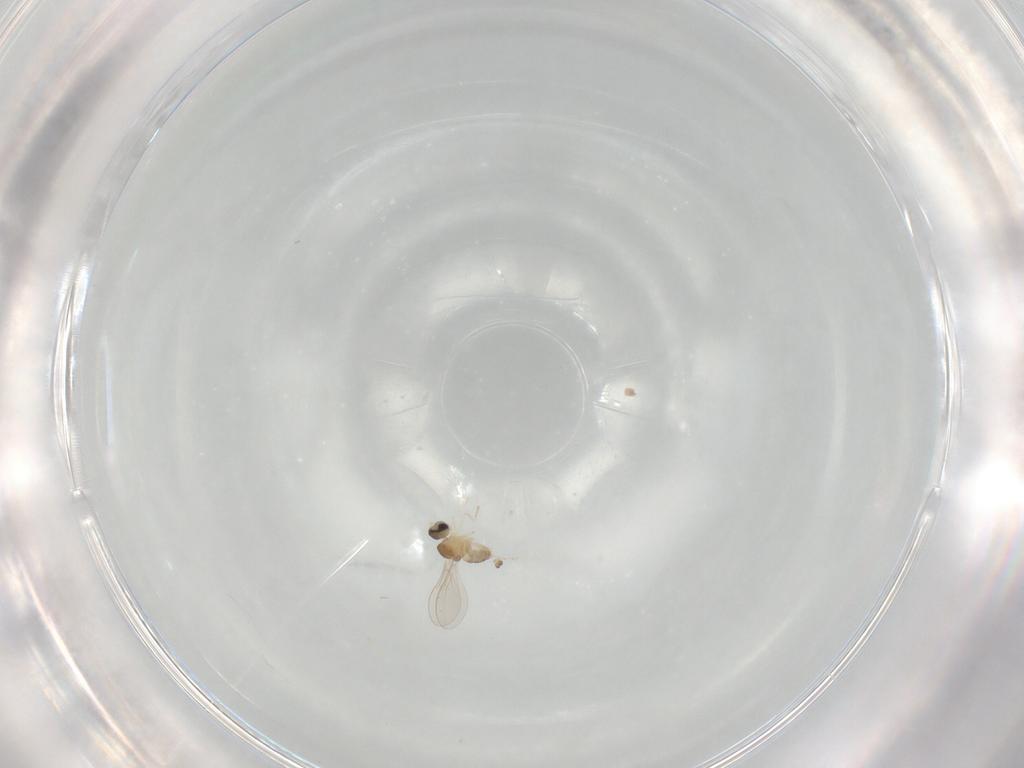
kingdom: Animalia
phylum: Arthropoda
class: Insecta
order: Diptera
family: Cecidomyiidae
